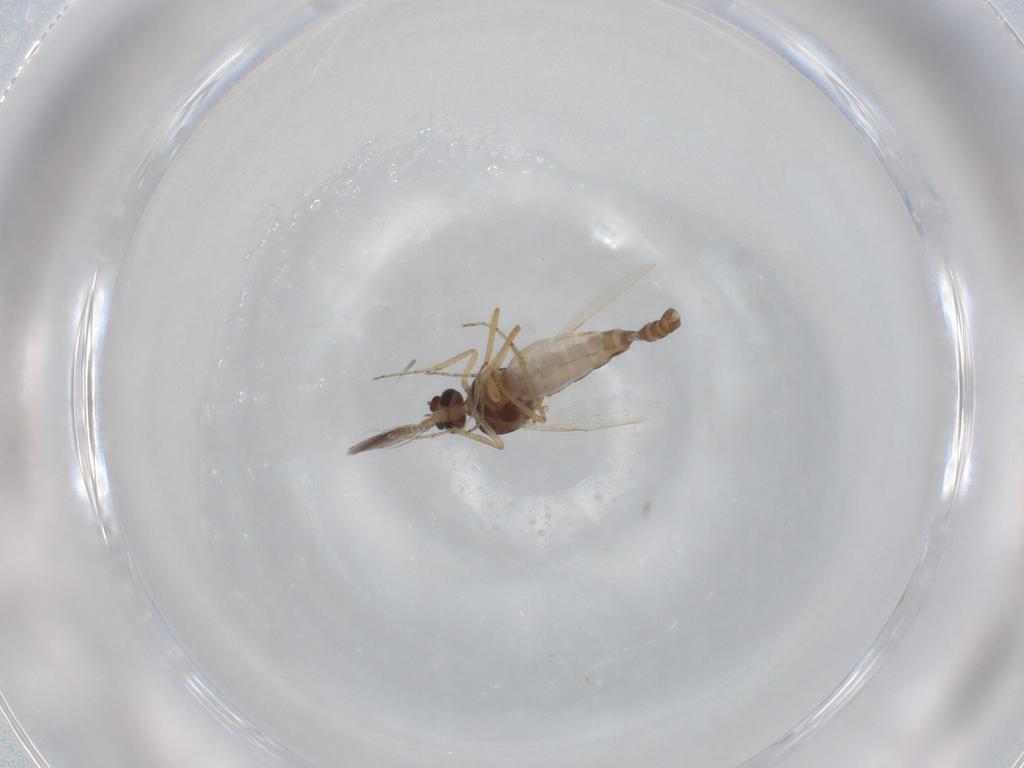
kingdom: Animalia
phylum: Arthropoda
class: Insecta
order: Diptera
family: Ceratopogonidae
